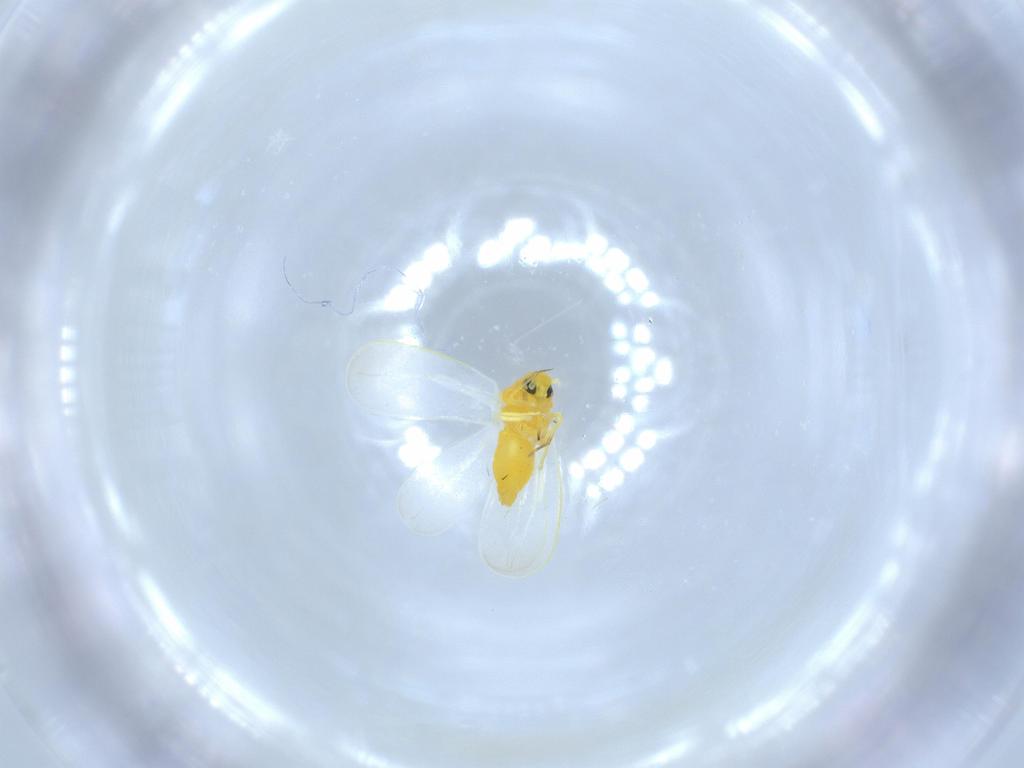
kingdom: Animalia
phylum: Arthropoda
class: Insecta
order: Hemiptera
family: Aleyrodidae
